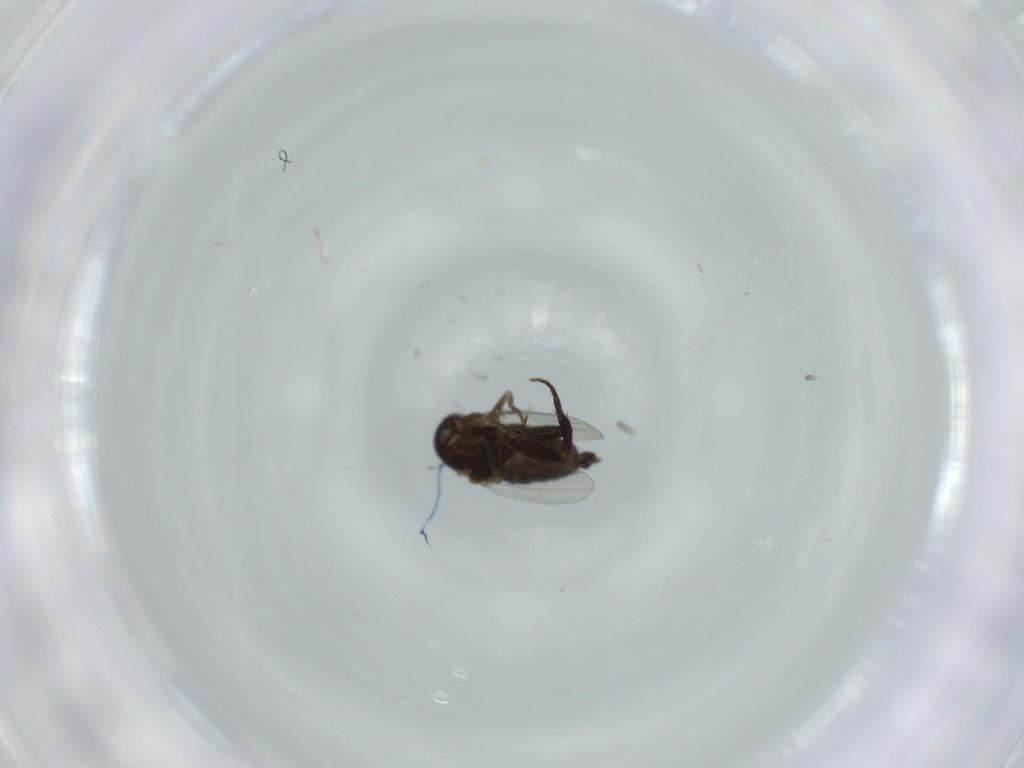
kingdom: Animalia
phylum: Arthropoda
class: Insecta
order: Diptera
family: Phoridae
